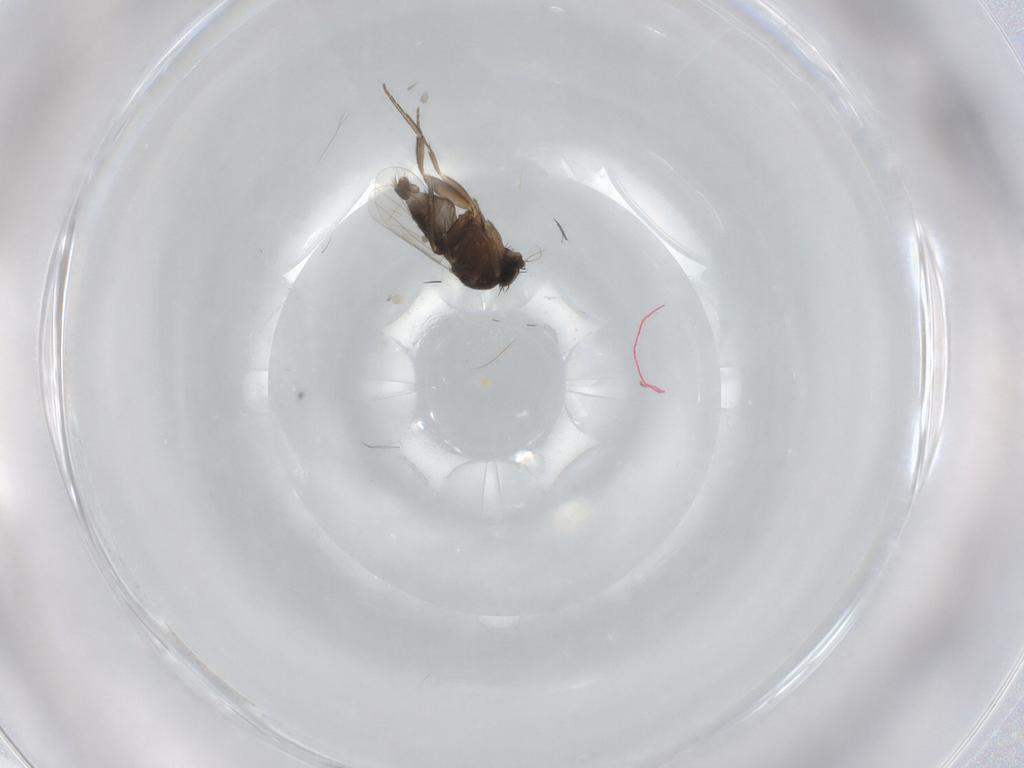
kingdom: Animalia
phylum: Arthropoda
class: Insecta
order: Diptera
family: Phoridae
